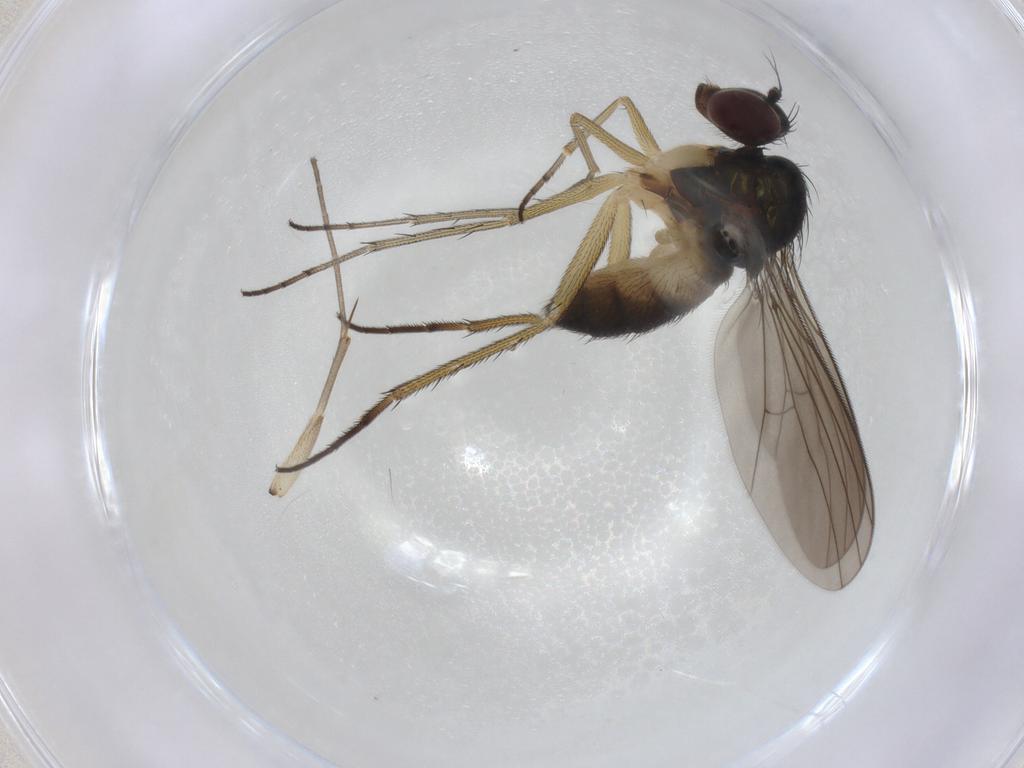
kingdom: Animalia
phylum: Arthropoda
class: Insecta
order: Diptera
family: Dolichopodidae
